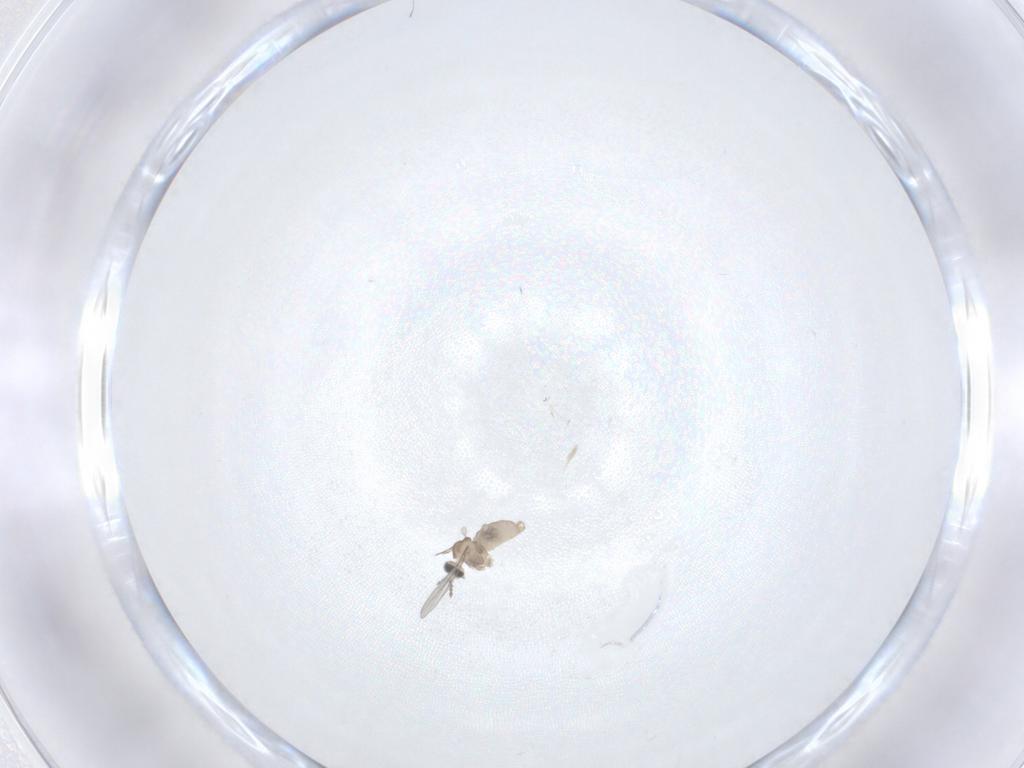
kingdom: Animalia
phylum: Arthropoda
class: Insecta
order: Diptera
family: Cecidomyiidae
